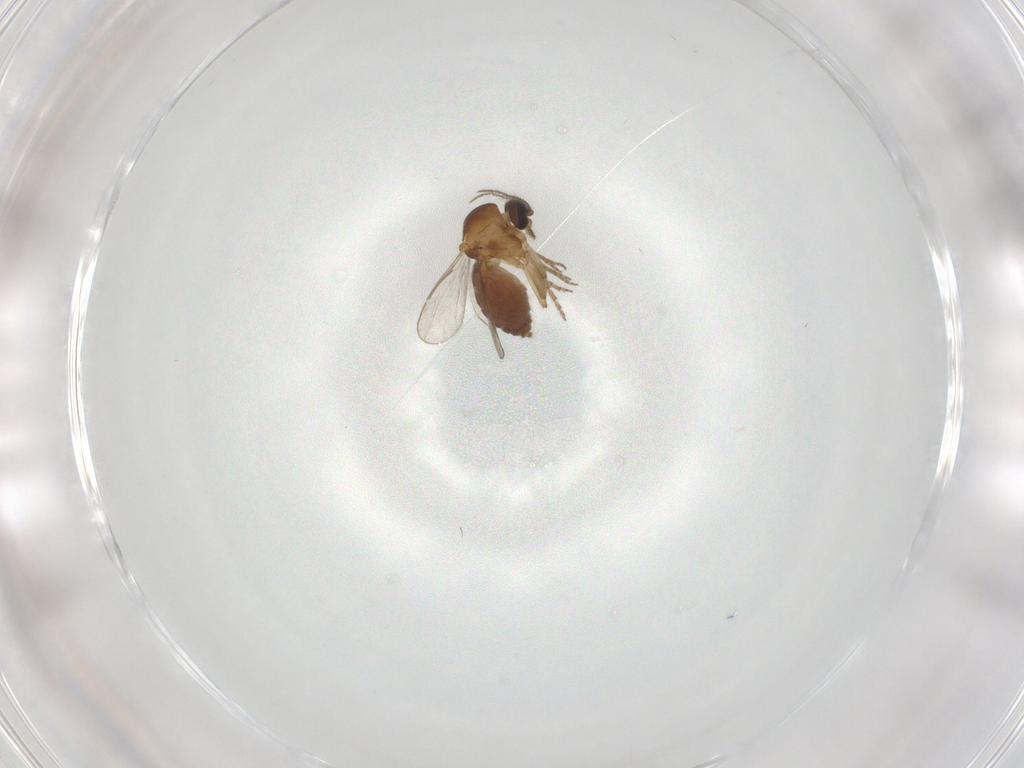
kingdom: Animalia
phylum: Arthropoda
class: Insecta
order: Diptera
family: Ceratopogonidae
